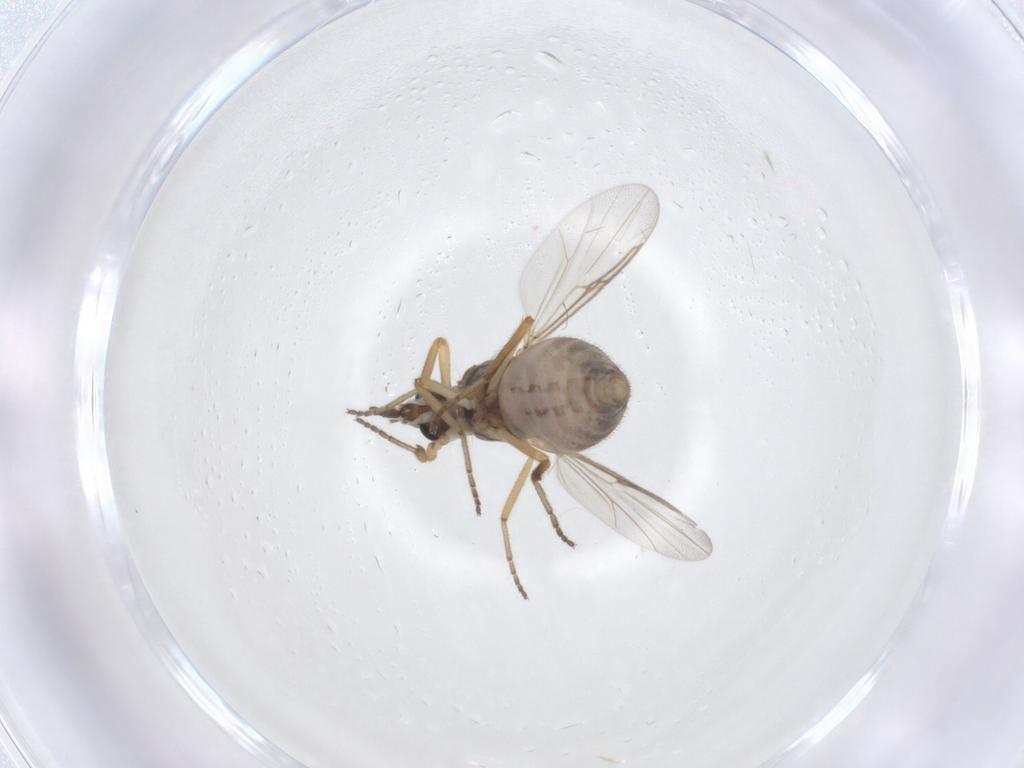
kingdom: Animalia
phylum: Arthropoda
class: Insecta
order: Diptera
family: Ceratopogonidae
